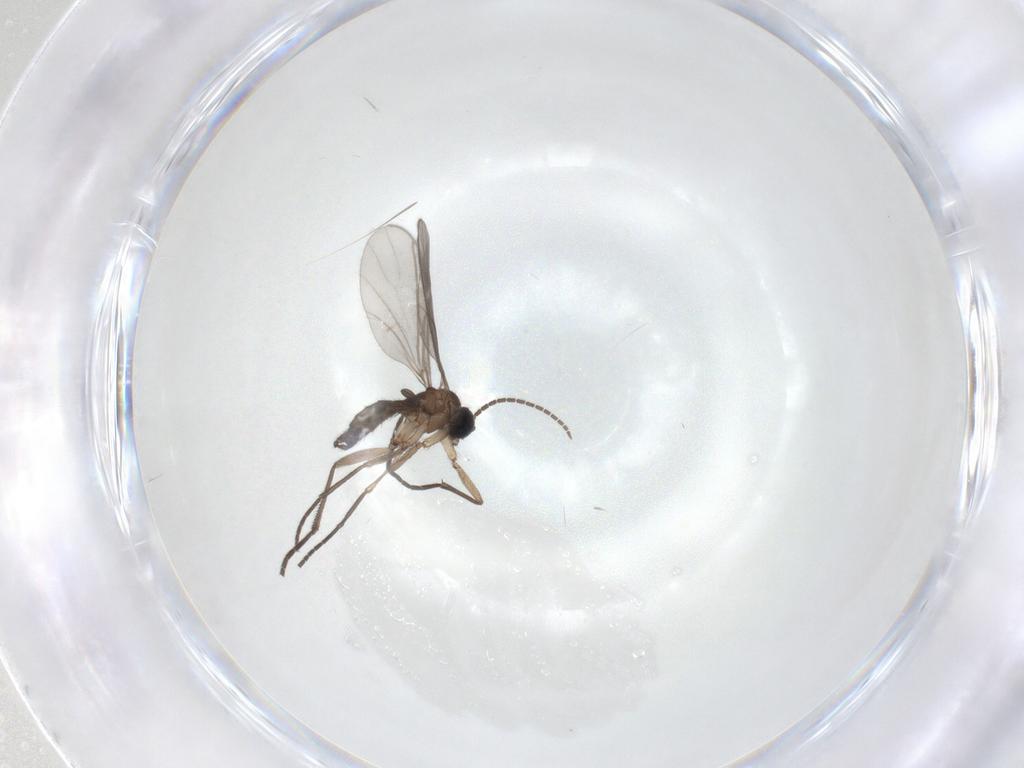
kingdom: Animalia
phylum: Arthropoda
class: Insecta
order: Diptera
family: Sciaridae
